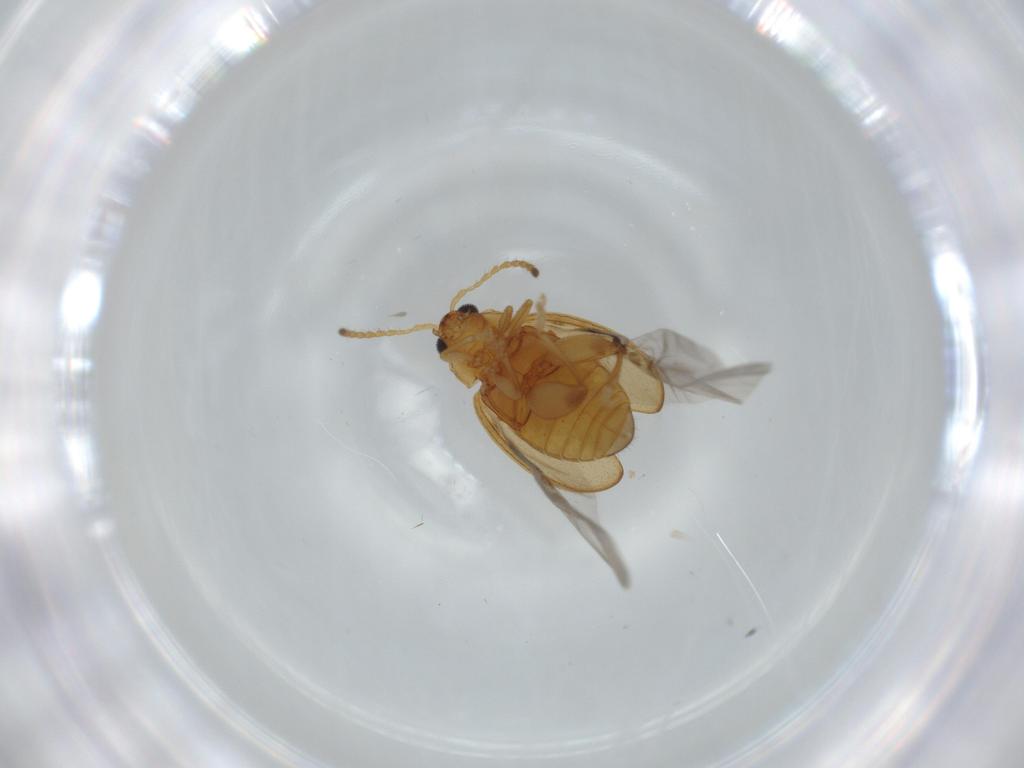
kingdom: Animalia
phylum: Arthropoda
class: Insecta
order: Coleoptera
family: Chrysomelidae
